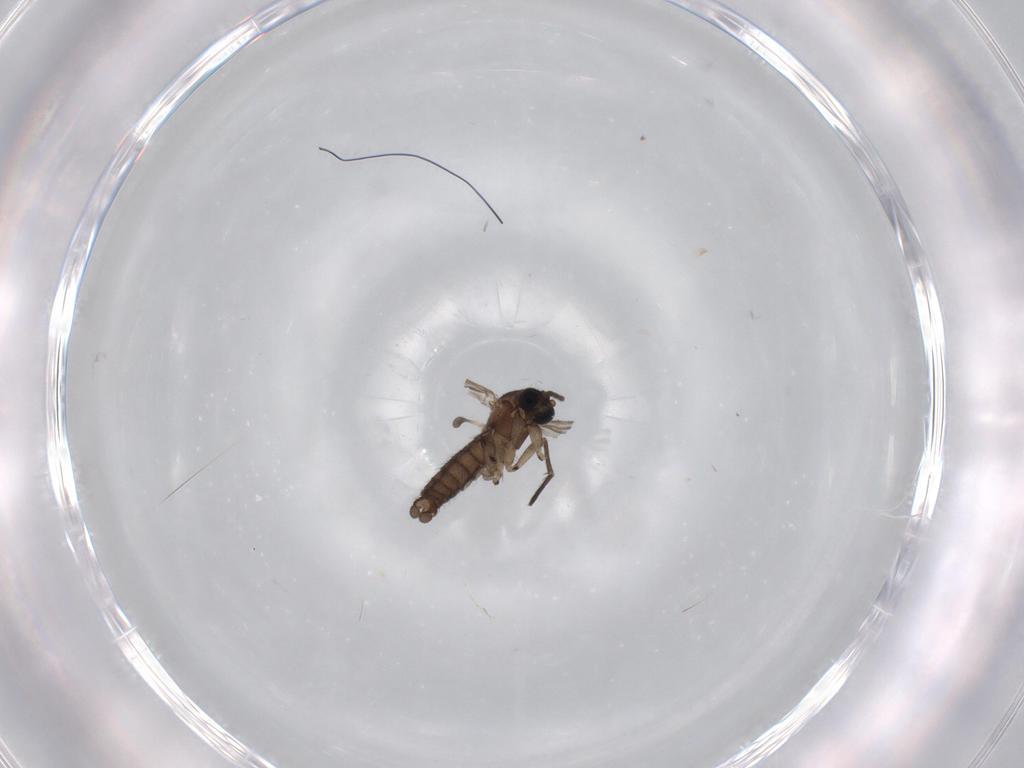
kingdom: Animalia
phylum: Arthropoda
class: Insecta
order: Diptera
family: Sciaridae
